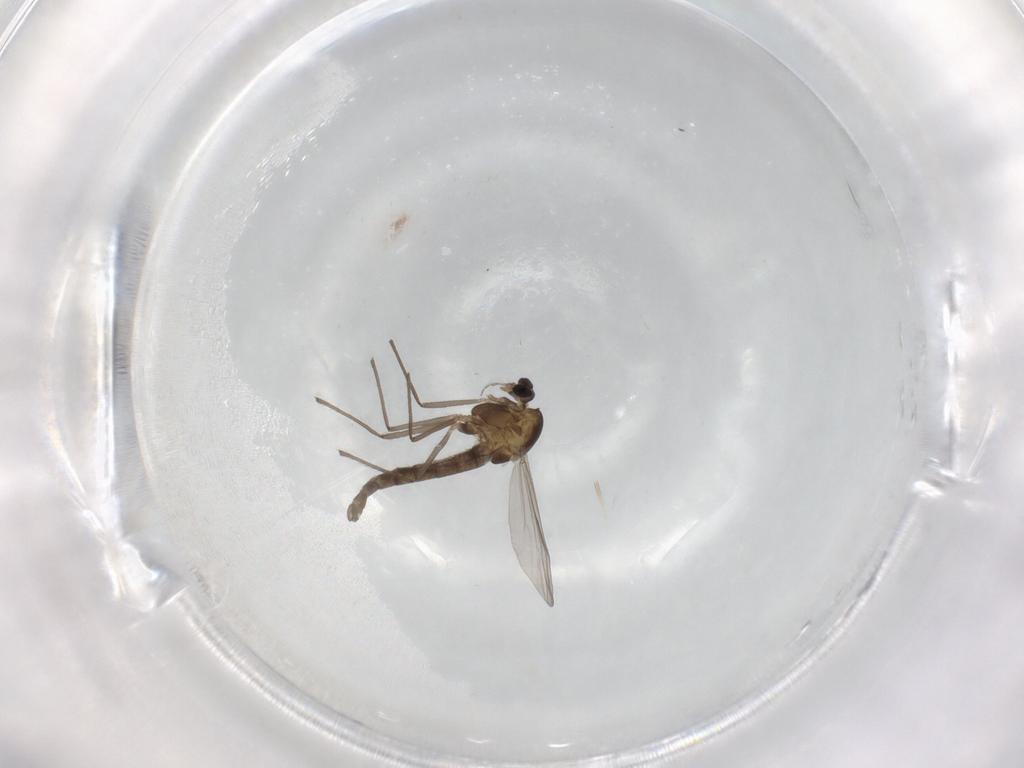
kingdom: Animalia
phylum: Arthropoda
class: Insecta
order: Diptera
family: Chironomidae
